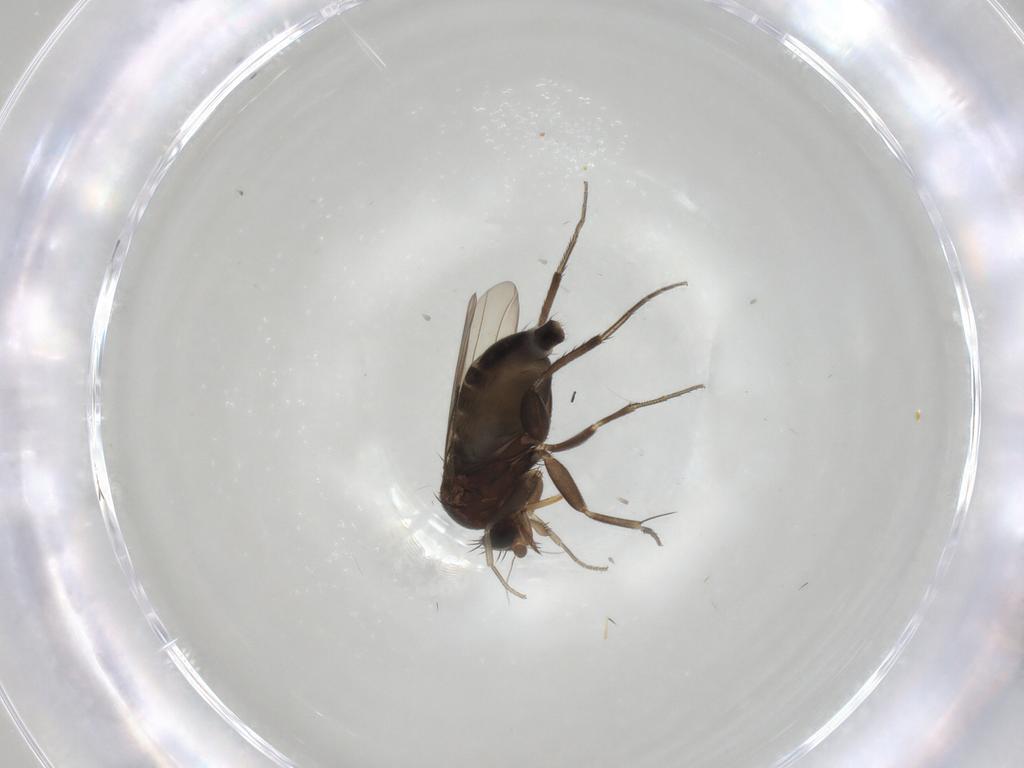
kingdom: Animalia
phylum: Arthropoda
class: Insecta
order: Diptera
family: Phoridae
